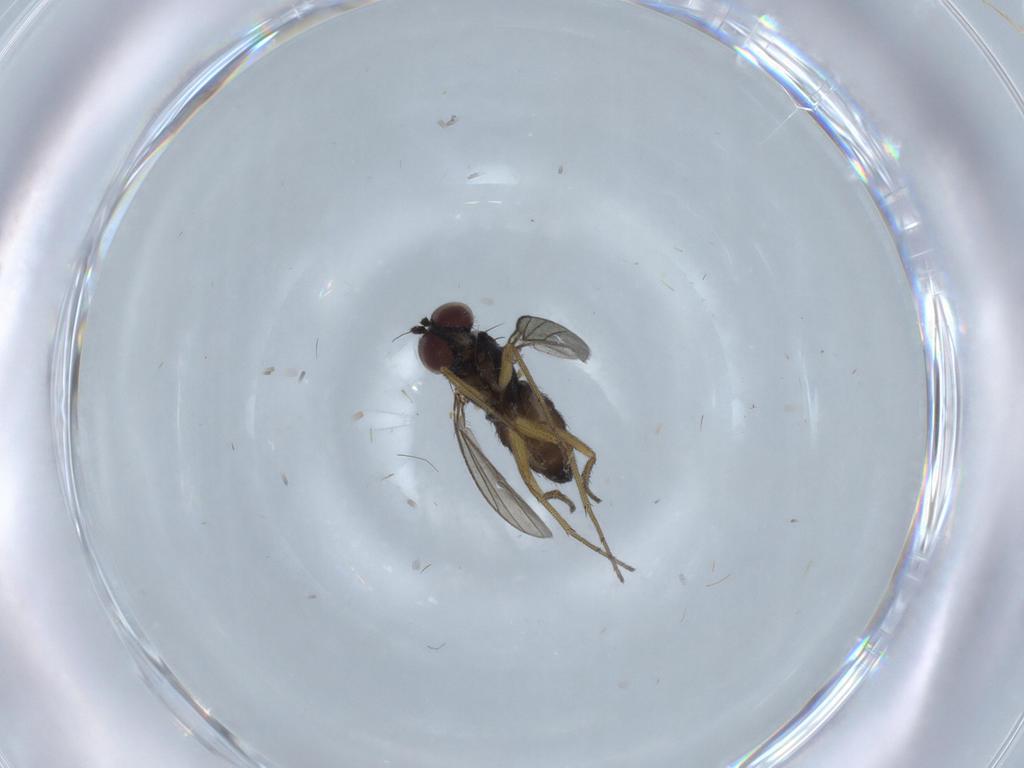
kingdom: Animalia
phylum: Arthropoda
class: Insecta
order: Diptera
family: Dolichopodidae
